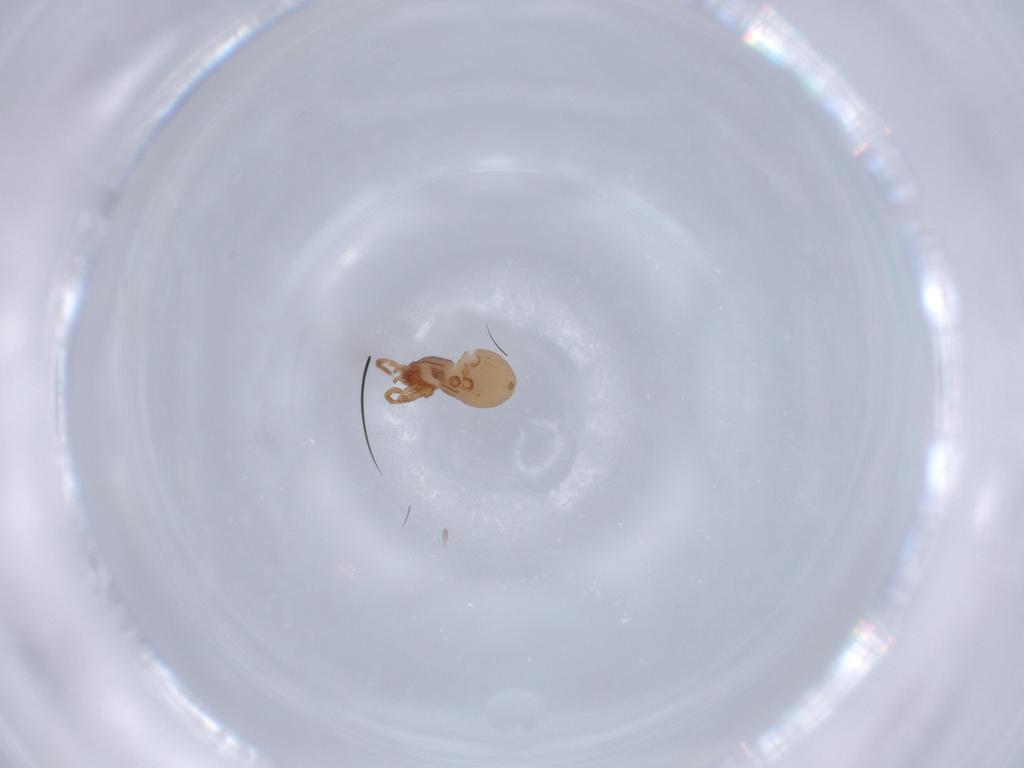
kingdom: Animalia
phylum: Arthropoda
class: Arachnida
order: Mesostigmata
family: Parasitidae
